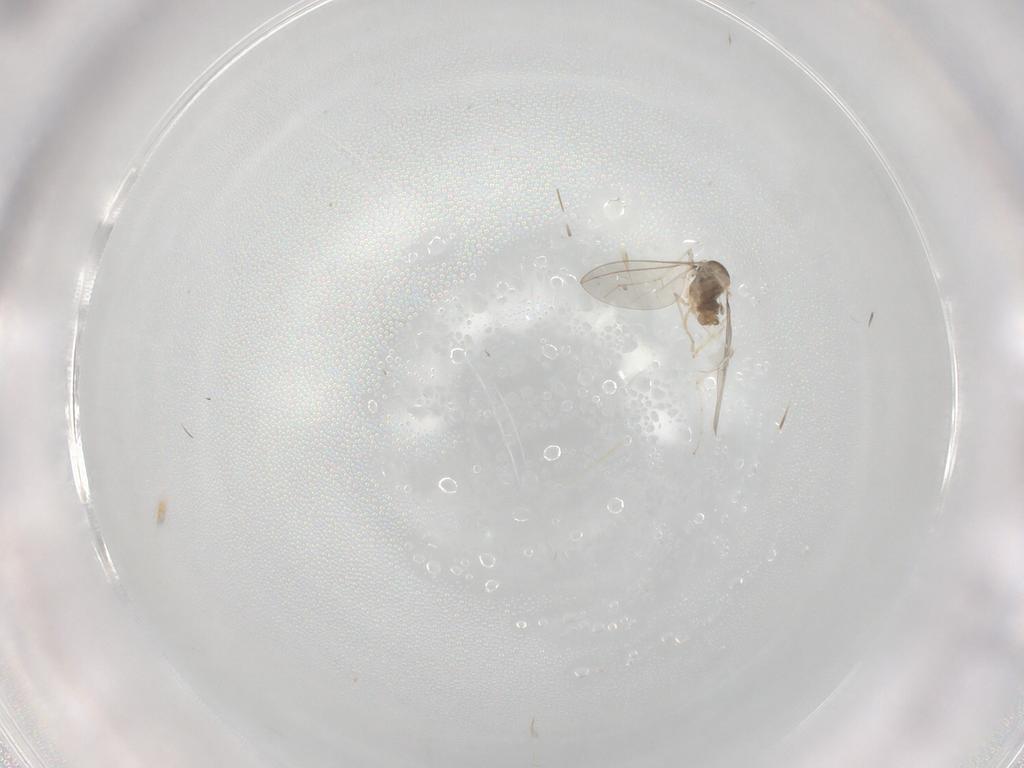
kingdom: Animalia
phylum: Arthropoda
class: Insecta
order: Diptera
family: Cecidomyiidae
